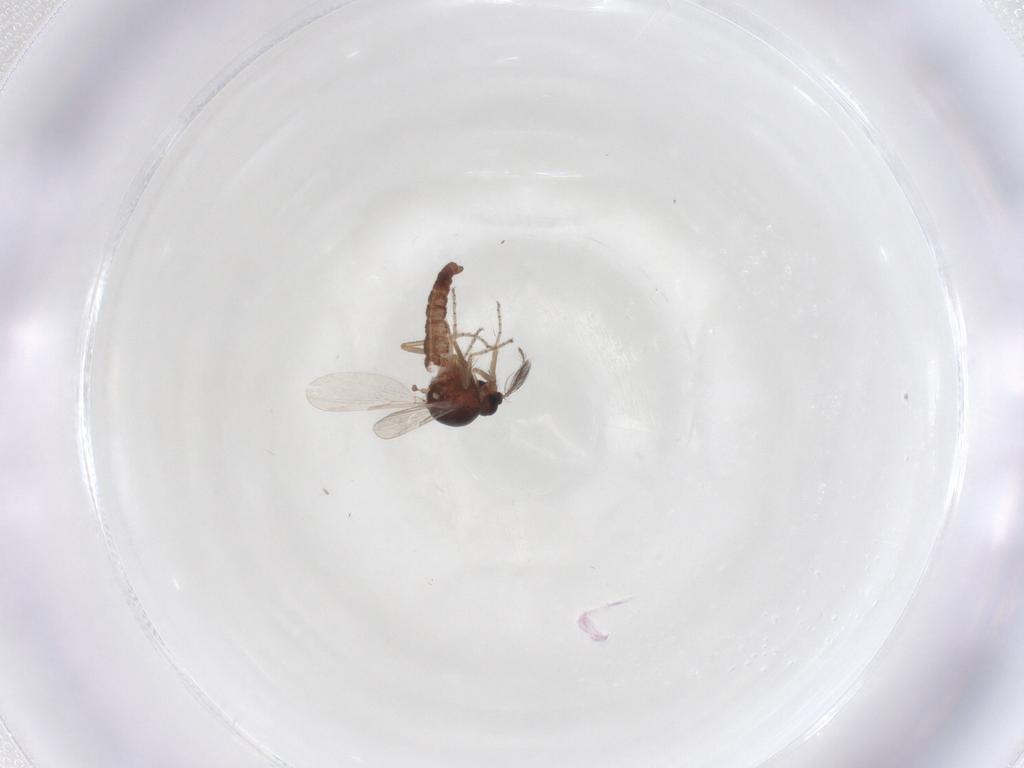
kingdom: Animalia
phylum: Arthropoda
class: Insecta
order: Diptera
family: Ceratopogonidae
